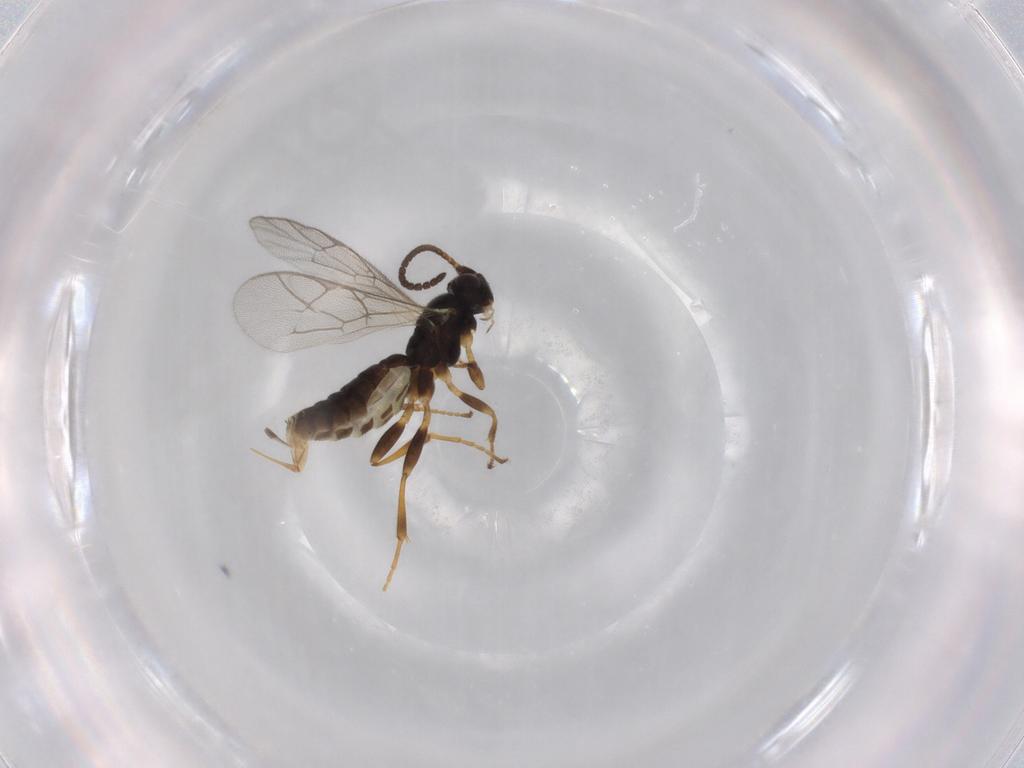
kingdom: Animalia
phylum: Arthropoda
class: Insecta
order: Hymenoptera
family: Ichneumonidae
